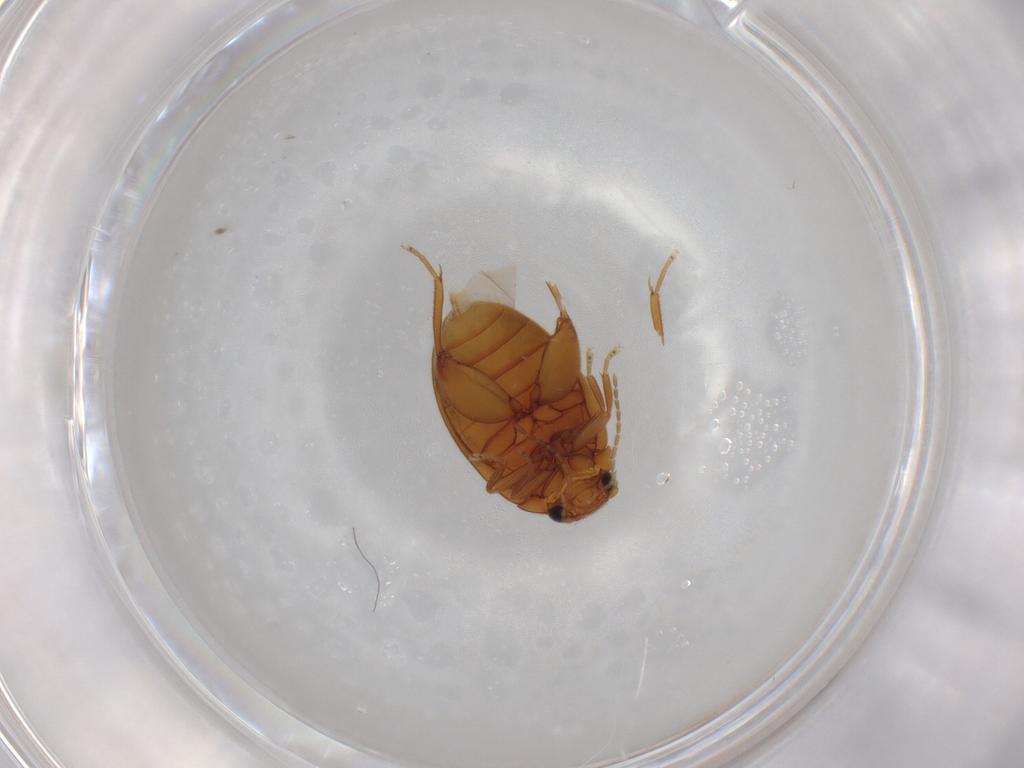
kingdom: Animalia
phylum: Arthropoda
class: Insecta
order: Coleoptera
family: Scirtidae
